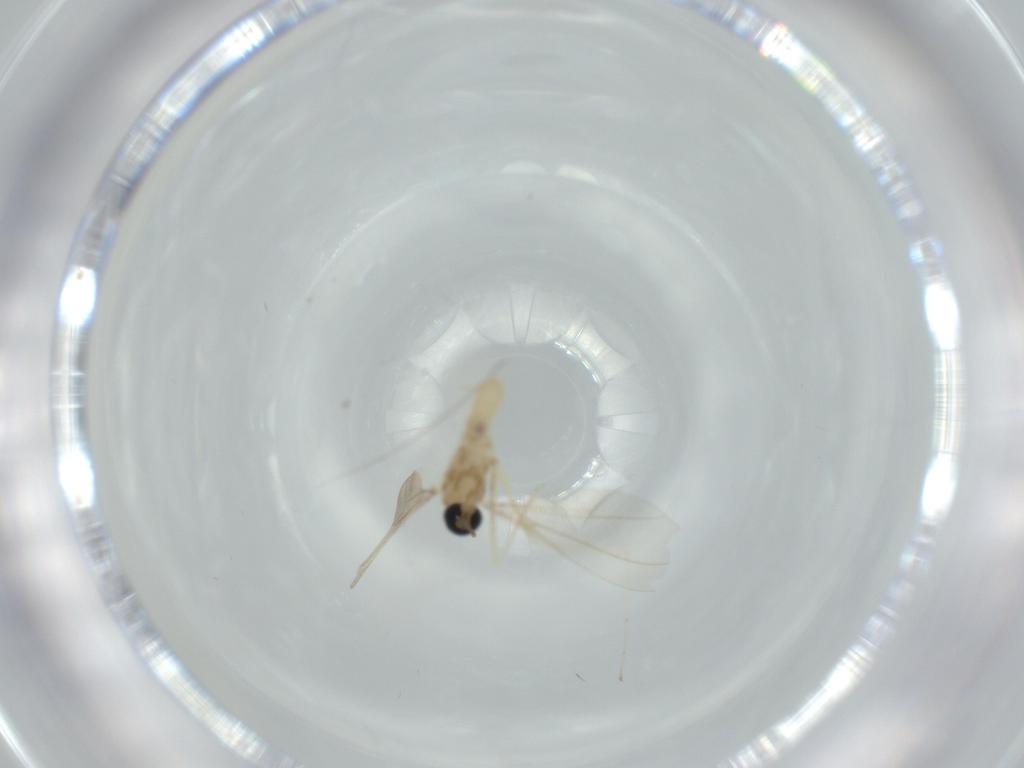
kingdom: Animalia
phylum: Arthropoda
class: Insecta
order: Diptera
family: Cecidomyiidae
